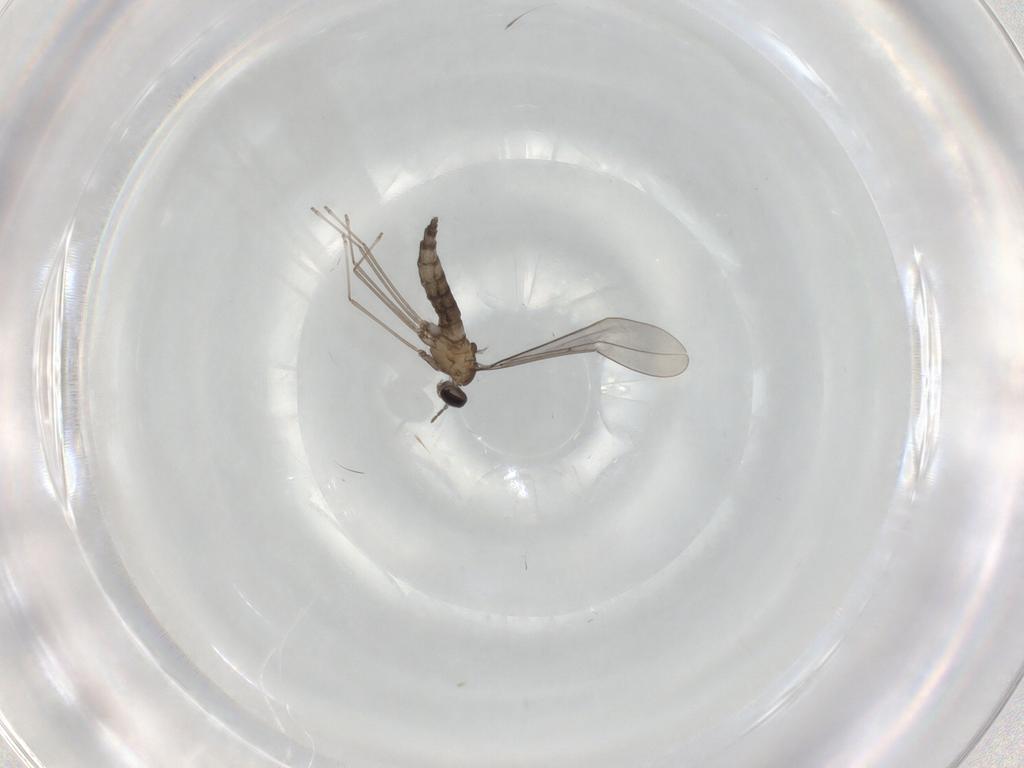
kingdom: Animalia
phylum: Arthropoda
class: Insecta
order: Diptera
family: Cecidomyiidae
